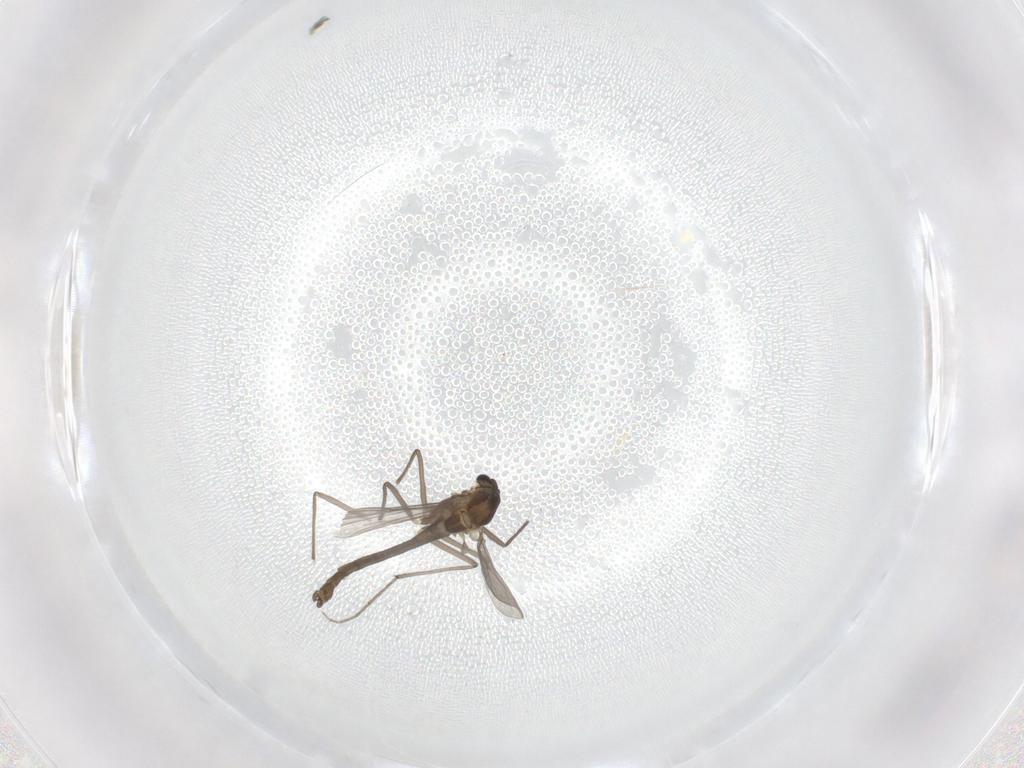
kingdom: Animalia
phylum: Arthropoda
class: Insecta
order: Diptera
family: Chironomidae
